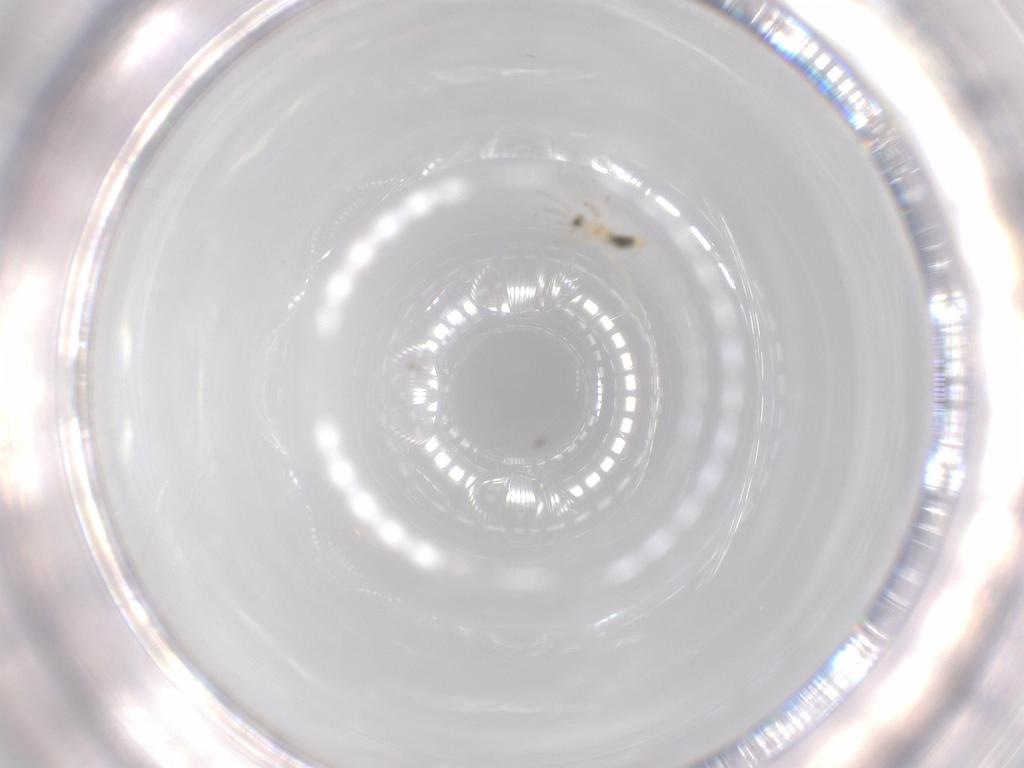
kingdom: Animalia
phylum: Arthropoda
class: Insecta
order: Diptera
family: Cecidomyiidae
